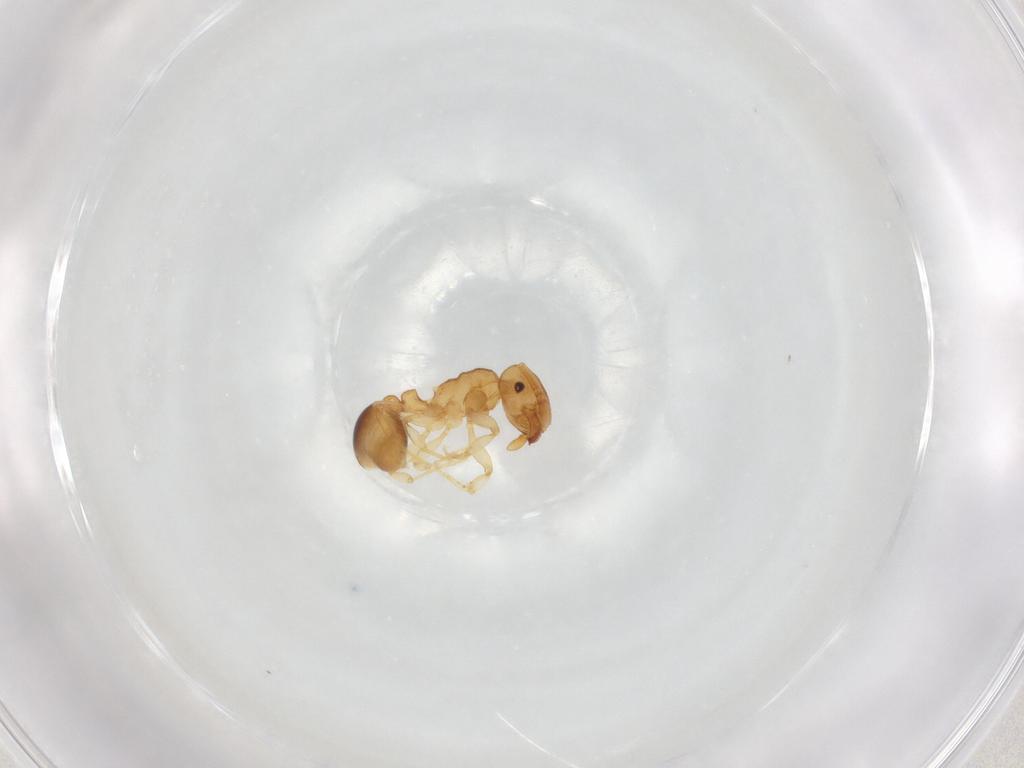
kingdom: Animalia
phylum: Arthropoda
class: Insecta
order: Hymenoptera
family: Formicidae
